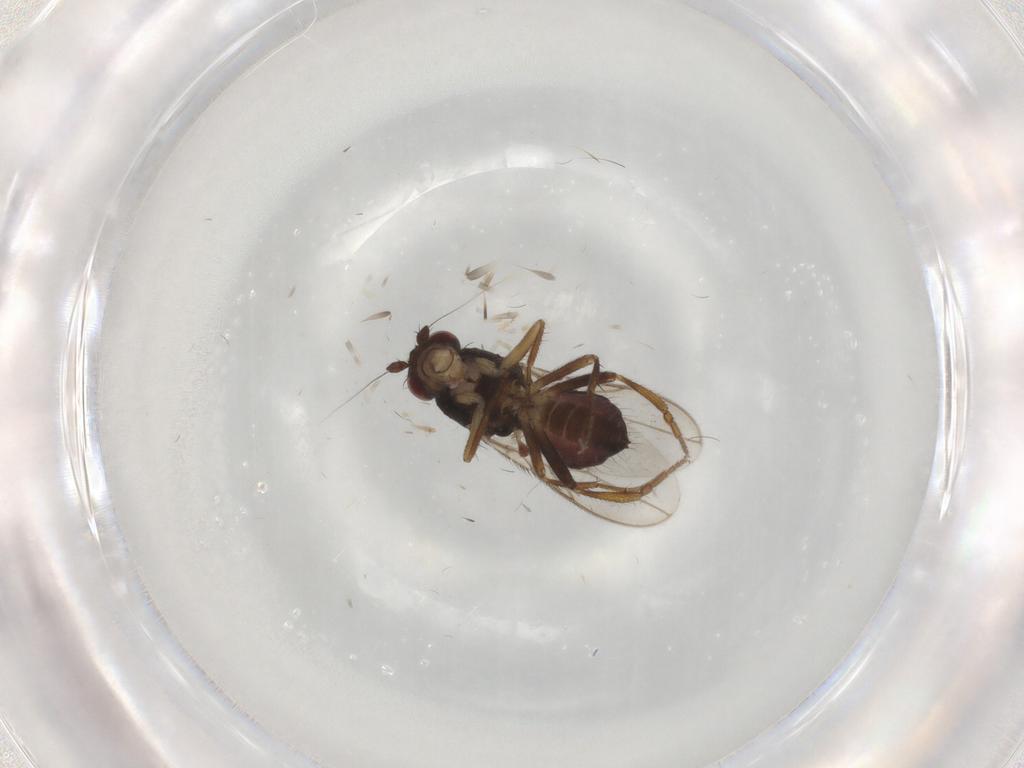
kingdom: Animalia
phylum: Arthropoda
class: Insecta
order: Diptera
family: Sphaeroceridae
